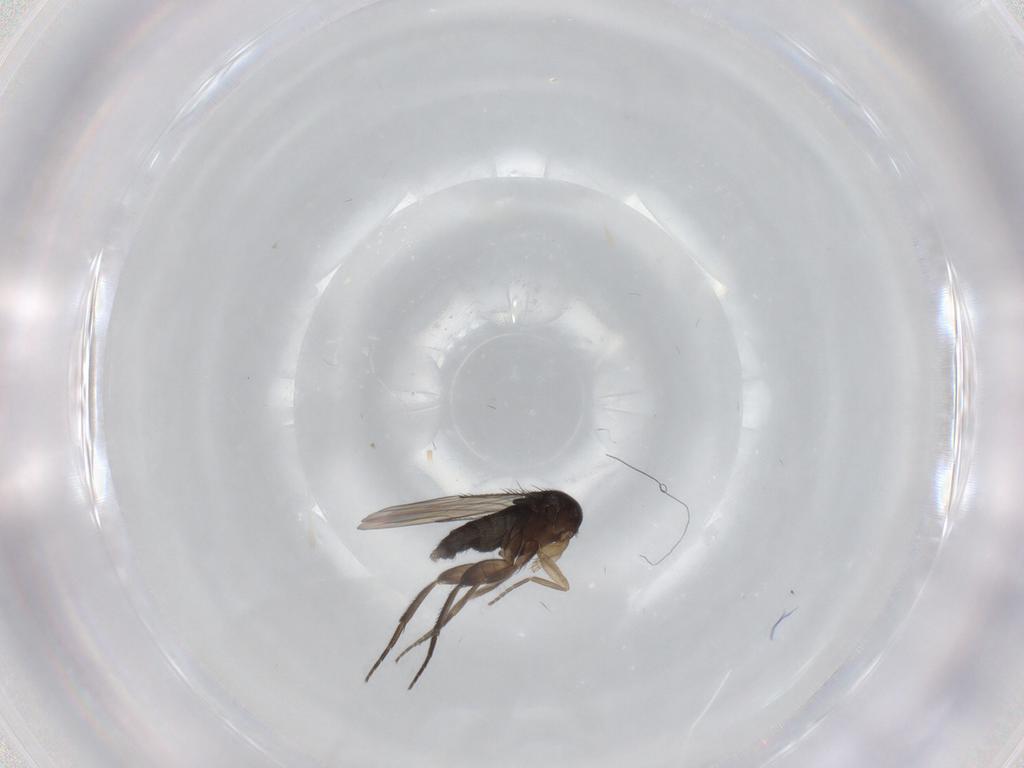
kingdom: Animalia
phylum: Arthropoda
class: Insecta
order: Diptera
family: Phoridae
